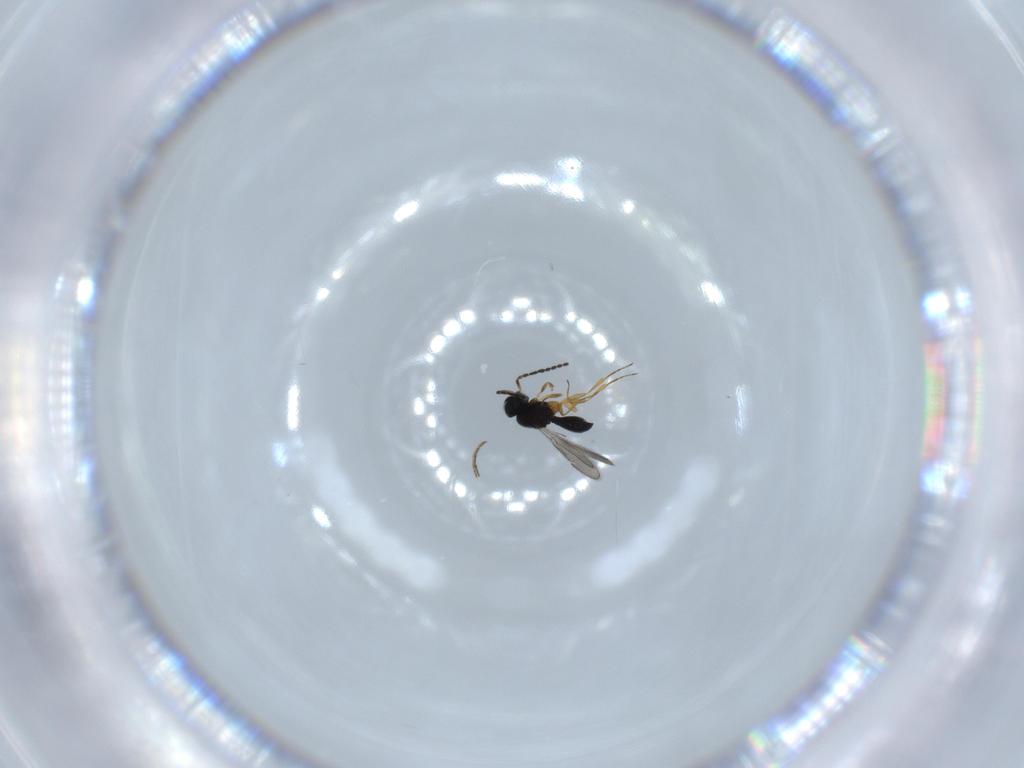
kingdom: Animalia
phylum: Arthropoda
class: Insecta
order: Hymenoptera
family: Scelionidae
